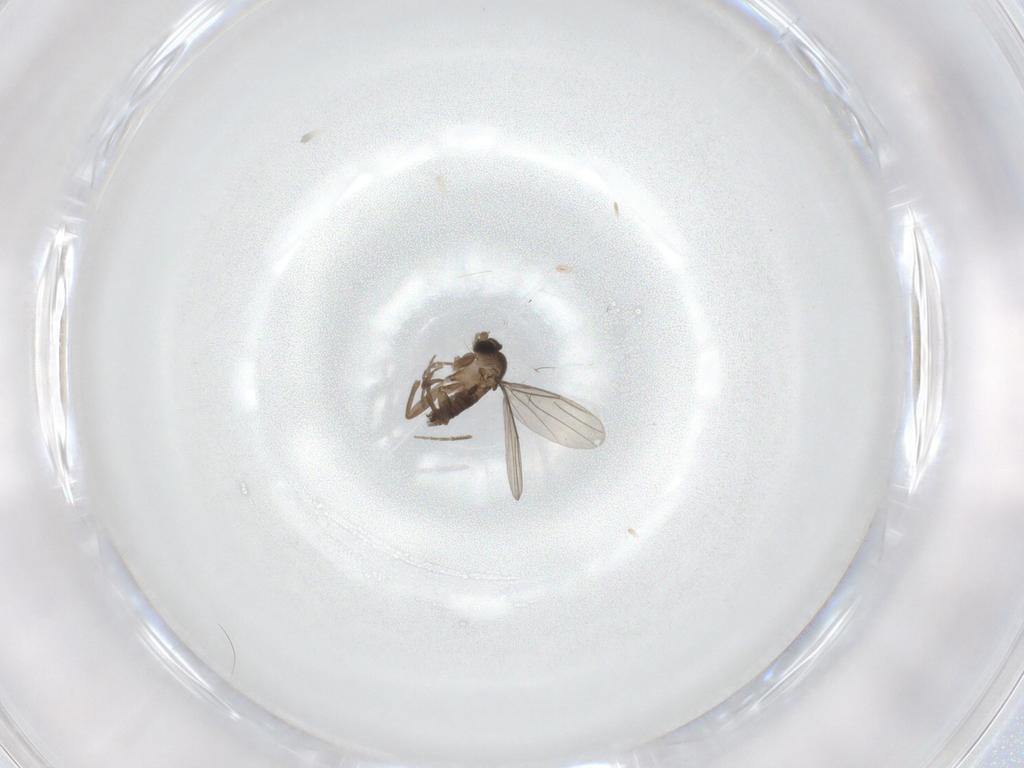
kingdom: Animalia
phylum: Arthropoda
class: Insecta
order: Diptera
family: Phoridae
